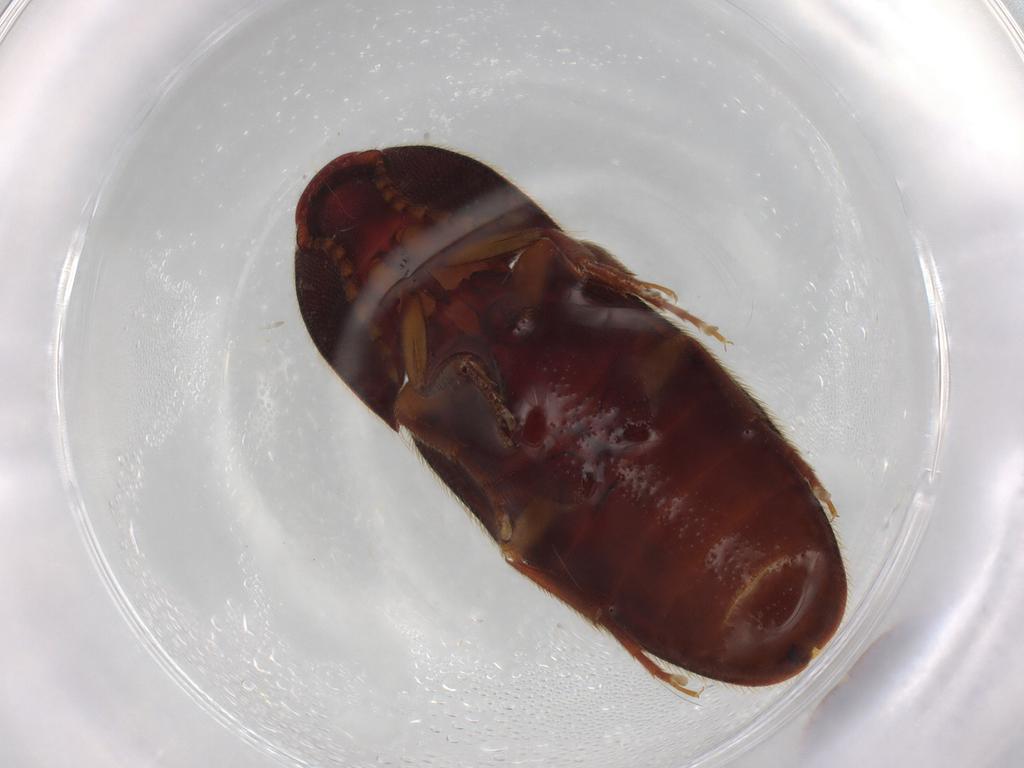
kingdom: Animalia
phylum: Arthropoda
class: Insecta
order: Coleoptera
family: Elateridae
